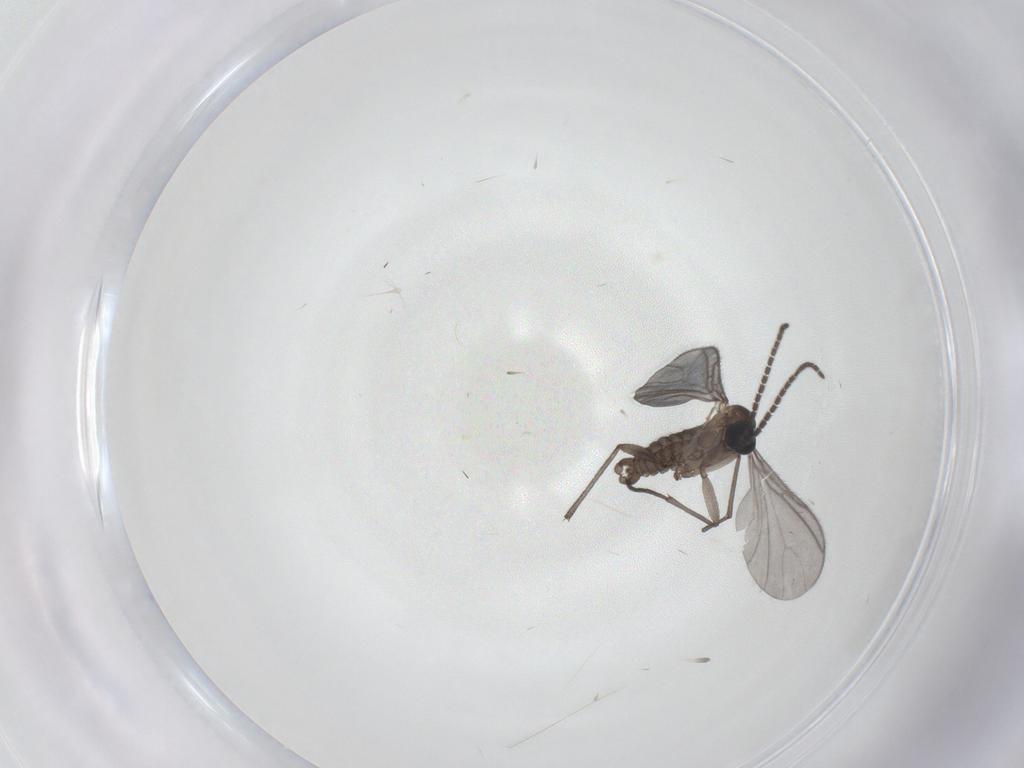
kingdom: Animalia
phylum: Arthropoda
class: Insecta
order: Diptera
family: Sciaridae
